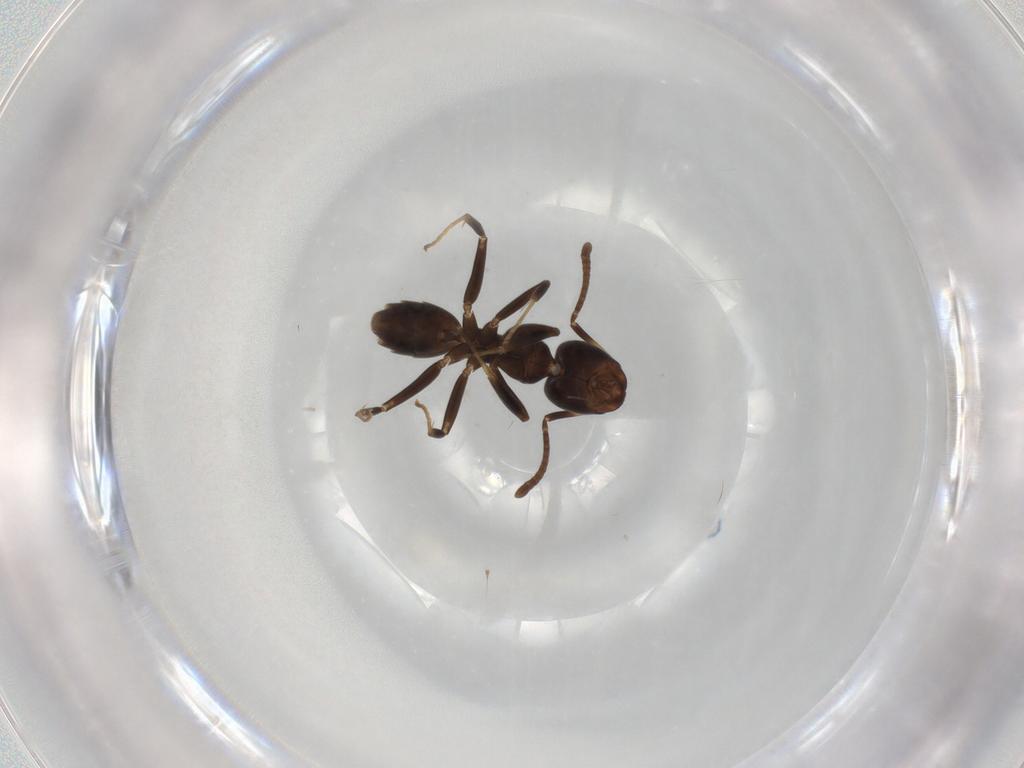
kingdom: Animalia
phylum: Arthropoda
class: Insecta
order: Hymenoptera
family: Formicidae
